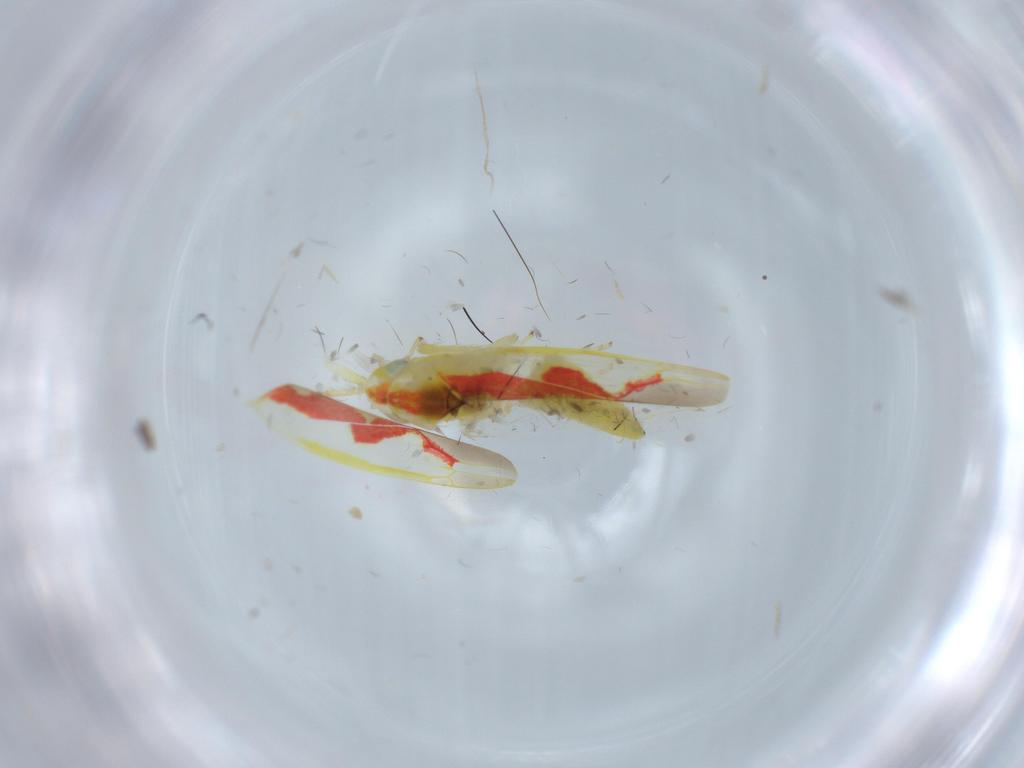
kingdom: Animalia
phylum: Arthropoda
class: Insecta
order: Hemiptera
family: Cercopidae
